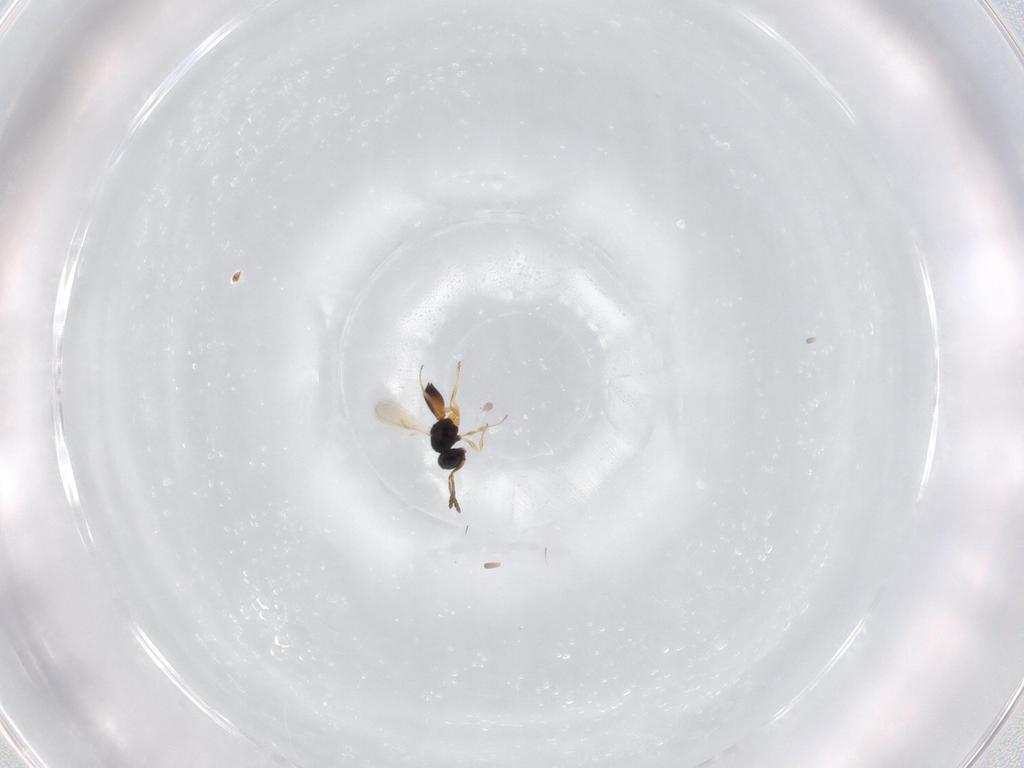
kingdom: Animalia
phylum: Arthropoda
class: Insecta
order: Hymenoptera
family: Scelionidae
